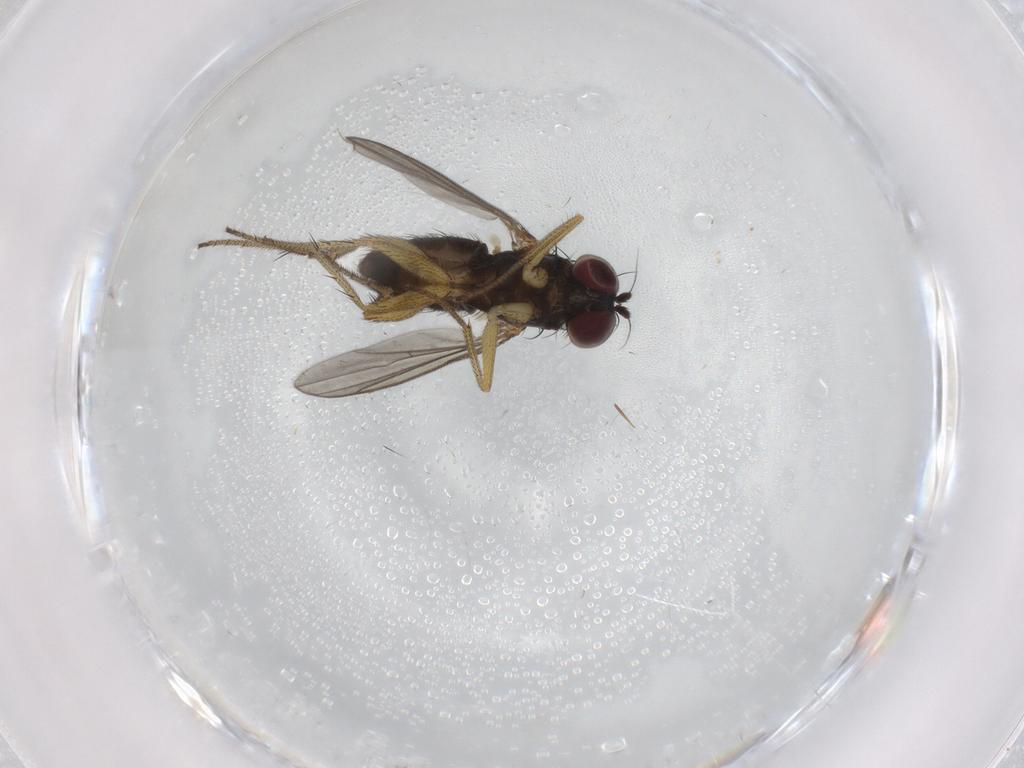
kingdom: Animalia
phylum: Arthropoda
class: Insecta
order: Diptera
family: Dolichopodidae
